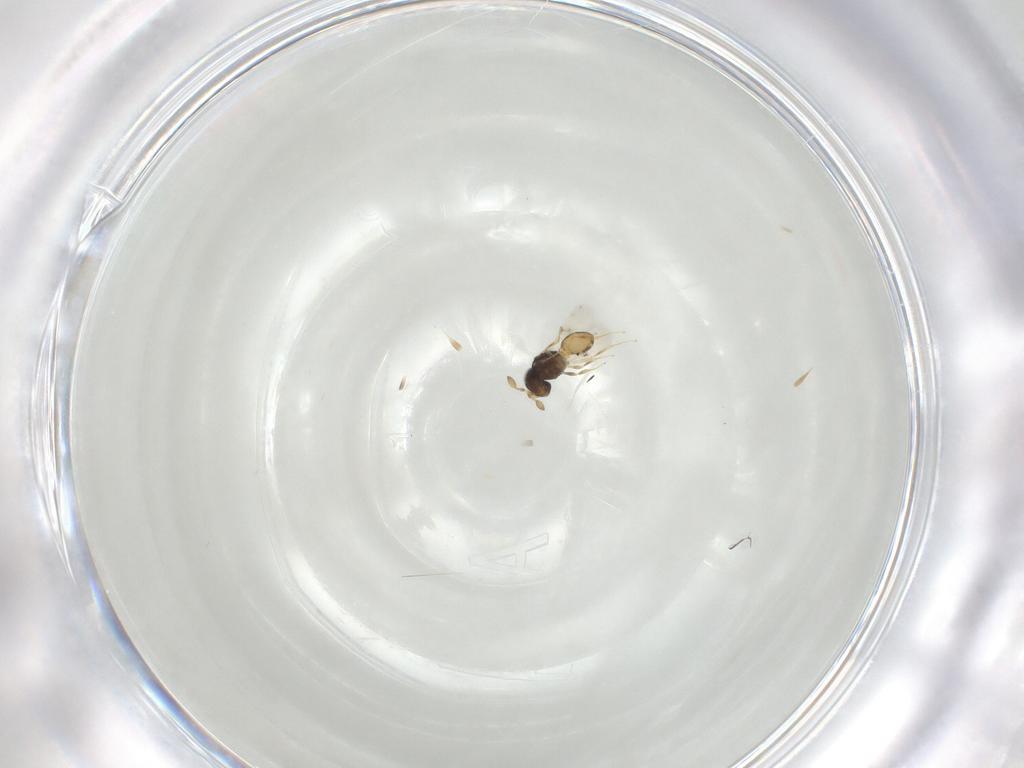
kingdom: Animalia
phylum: Arthropoda
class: Insecta
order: Hymenoptera
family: Scelionidae
